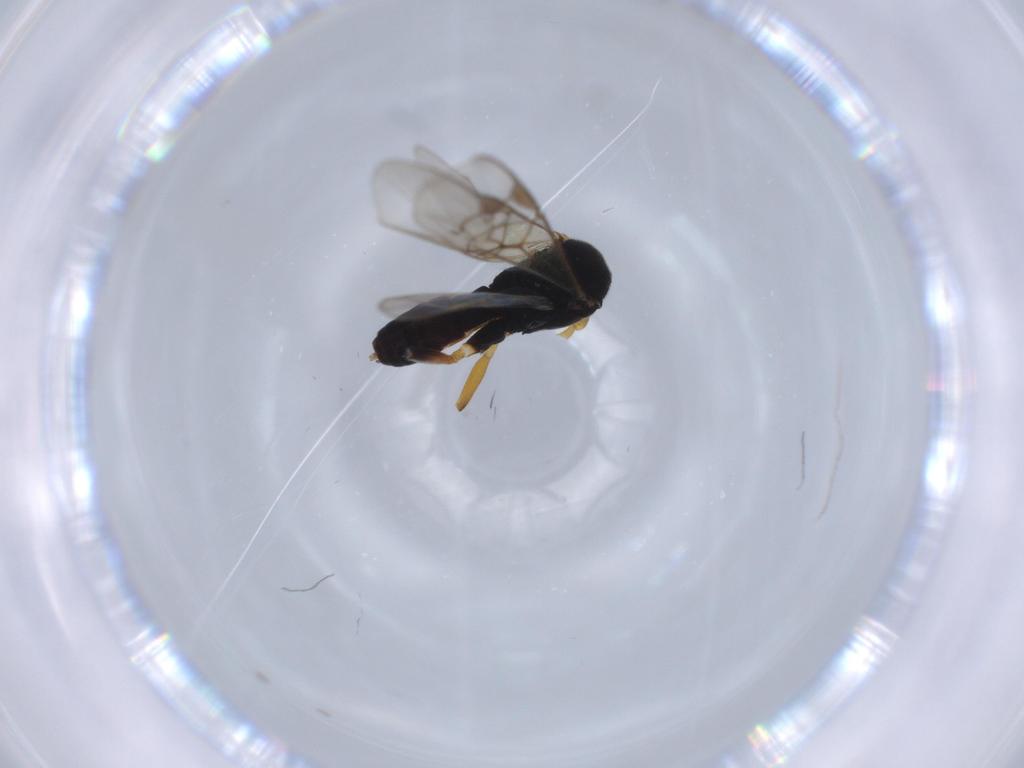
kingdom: Animalia
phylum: Arthropoda
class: Insecta
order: Hymenoptera
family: Braconidae
